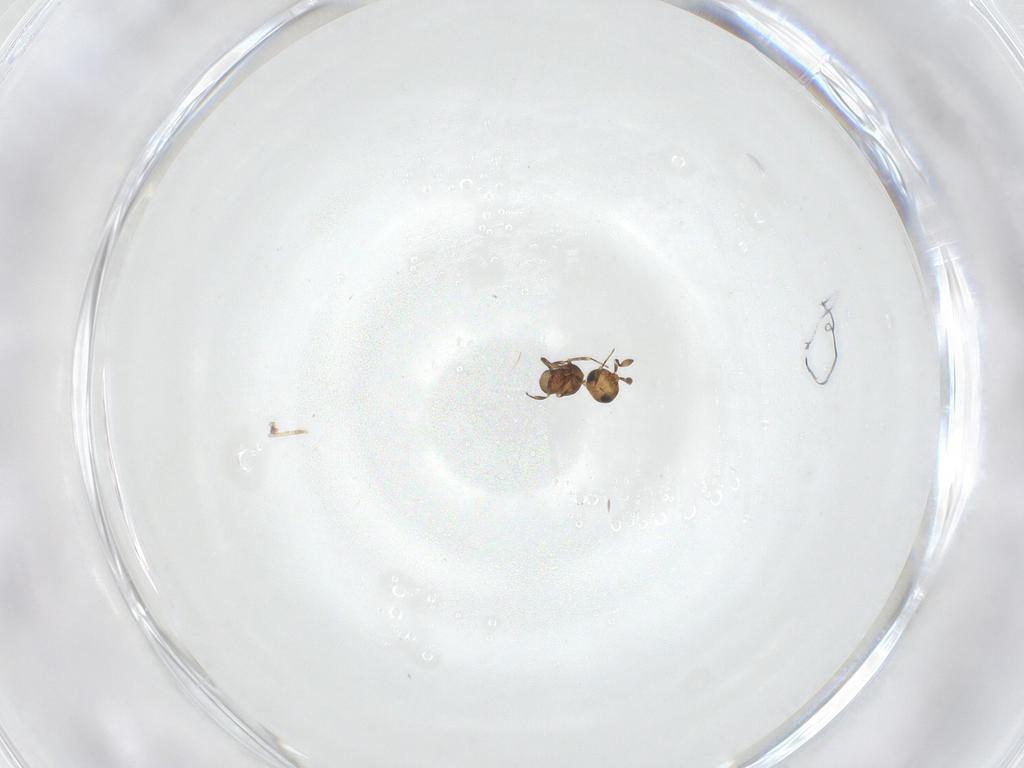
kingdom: Animalia
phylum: Arthropoda
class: Insecta
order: Hymenoptera
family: Scelionidae
